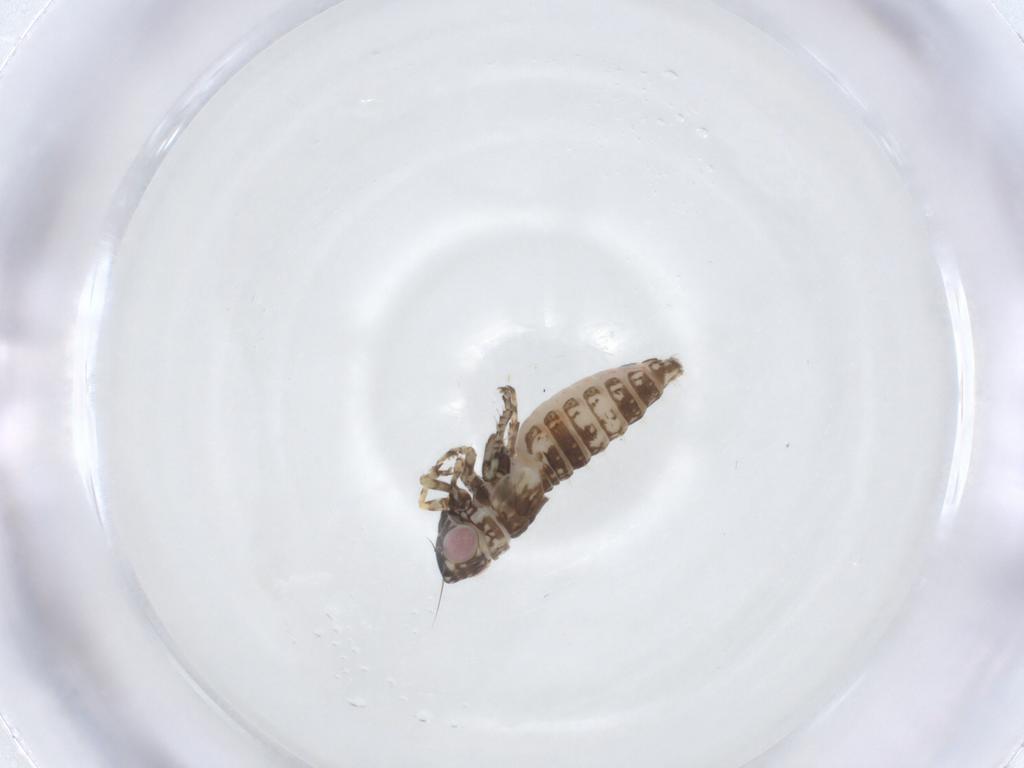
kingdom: Animalia
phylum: Arthropoda
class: Insecta
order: Hemiptera
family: Cicadellidae
